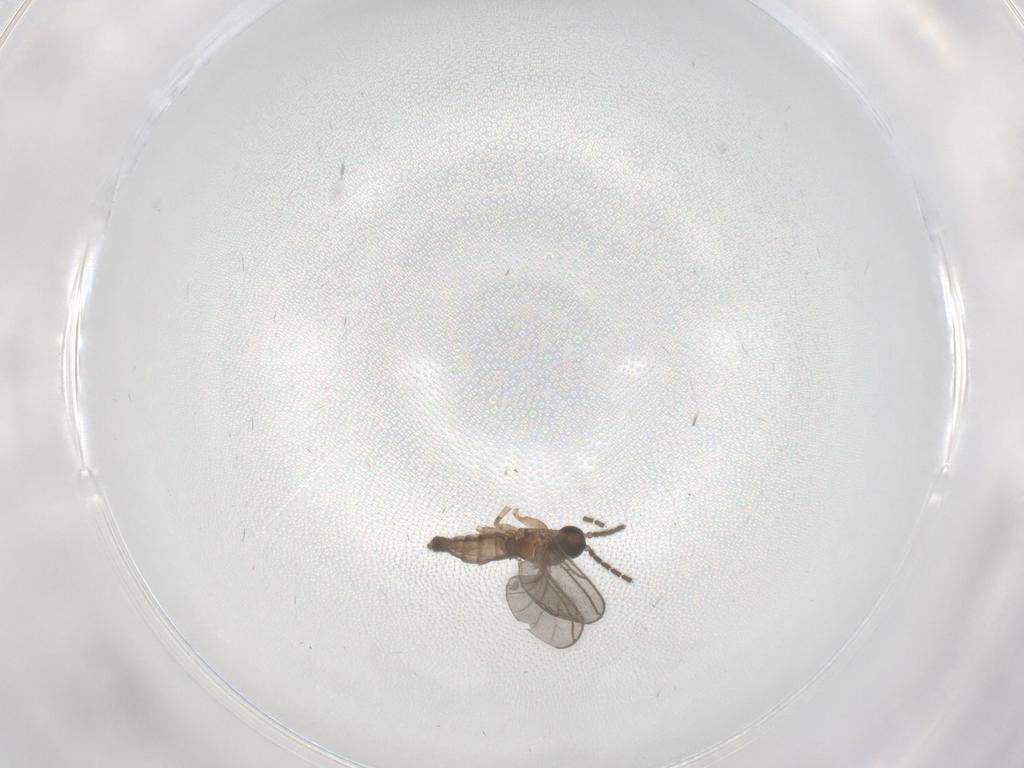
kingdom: Animalia
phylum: Arthropoda
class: Insecta
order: Diptera
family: Sciaridae
